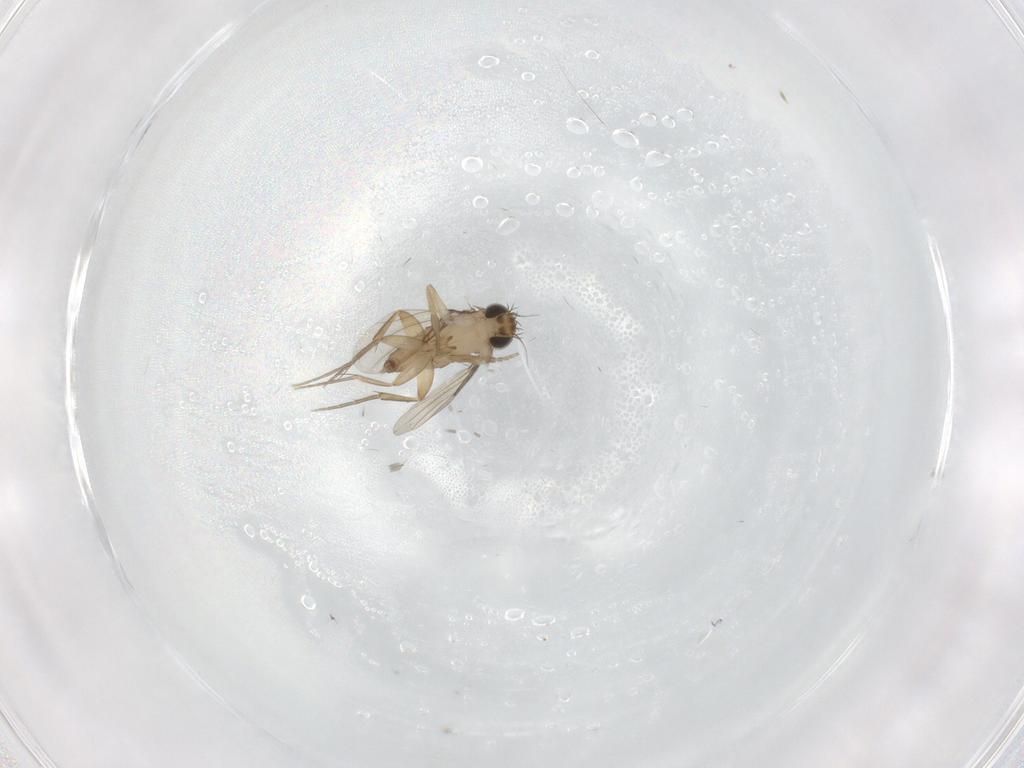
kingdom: Animalia
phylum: Arthropoda
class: Insecta
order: Diptera
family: Phoridae
